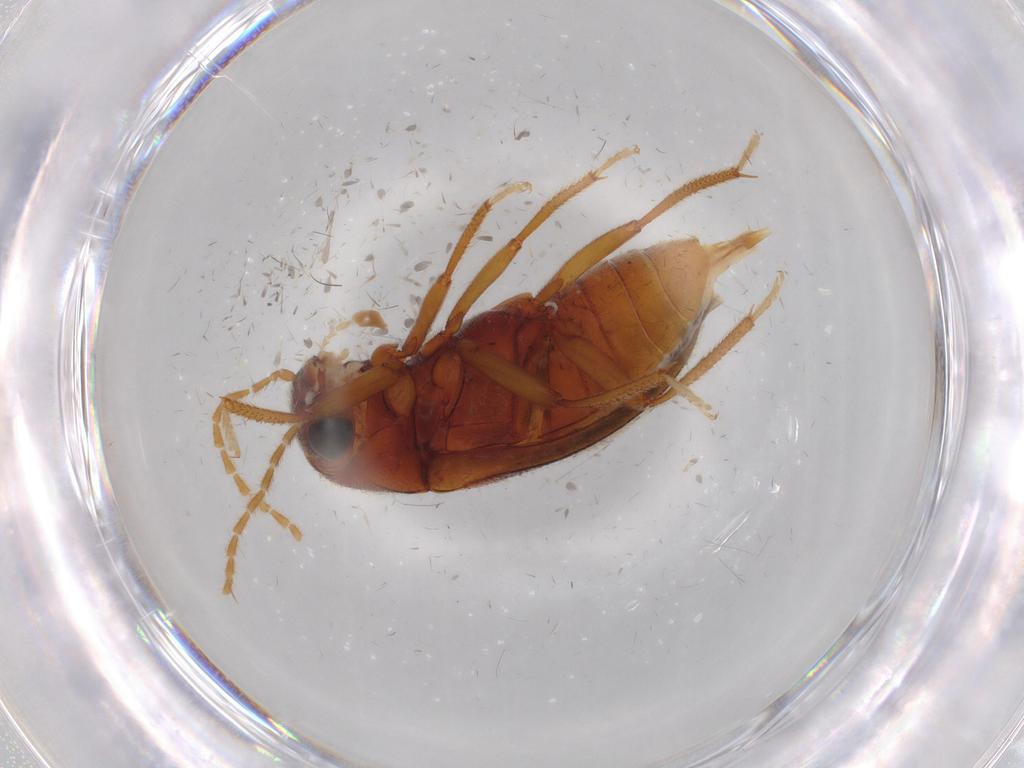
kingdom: Animalia
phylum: Arthropoda
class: Insecta
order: Coleoptera
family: Ptilodactylidae
